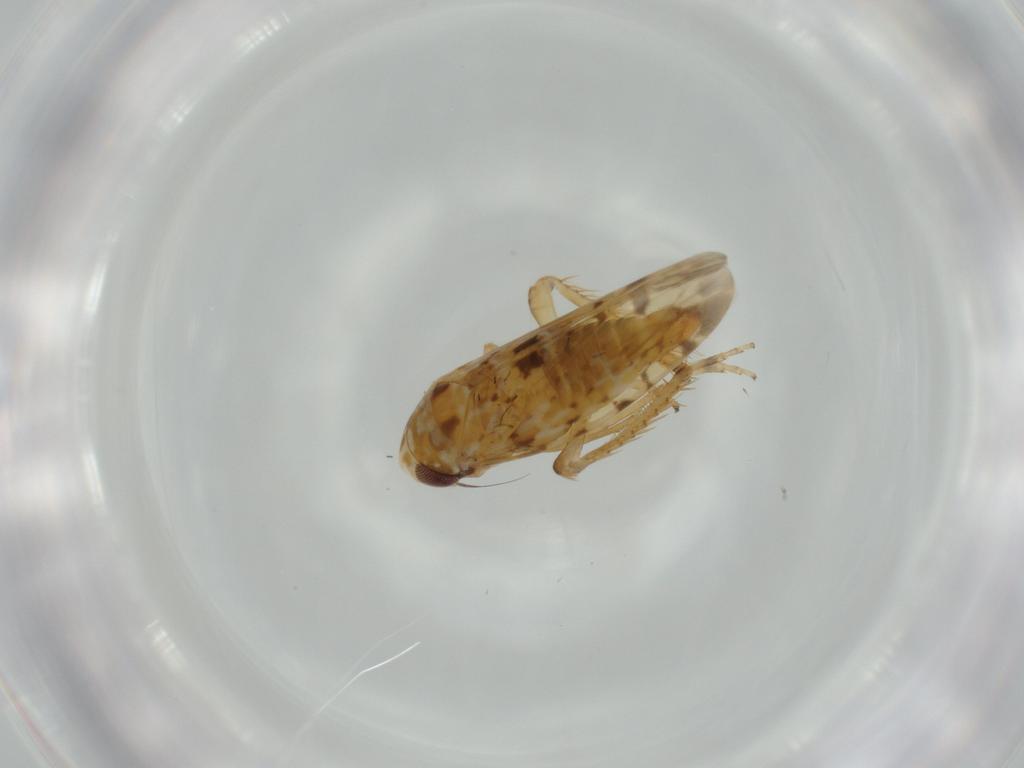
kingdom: Animalia
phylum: Arthropoda
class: Insecta
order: Hemiptera
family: Cicadellidae
